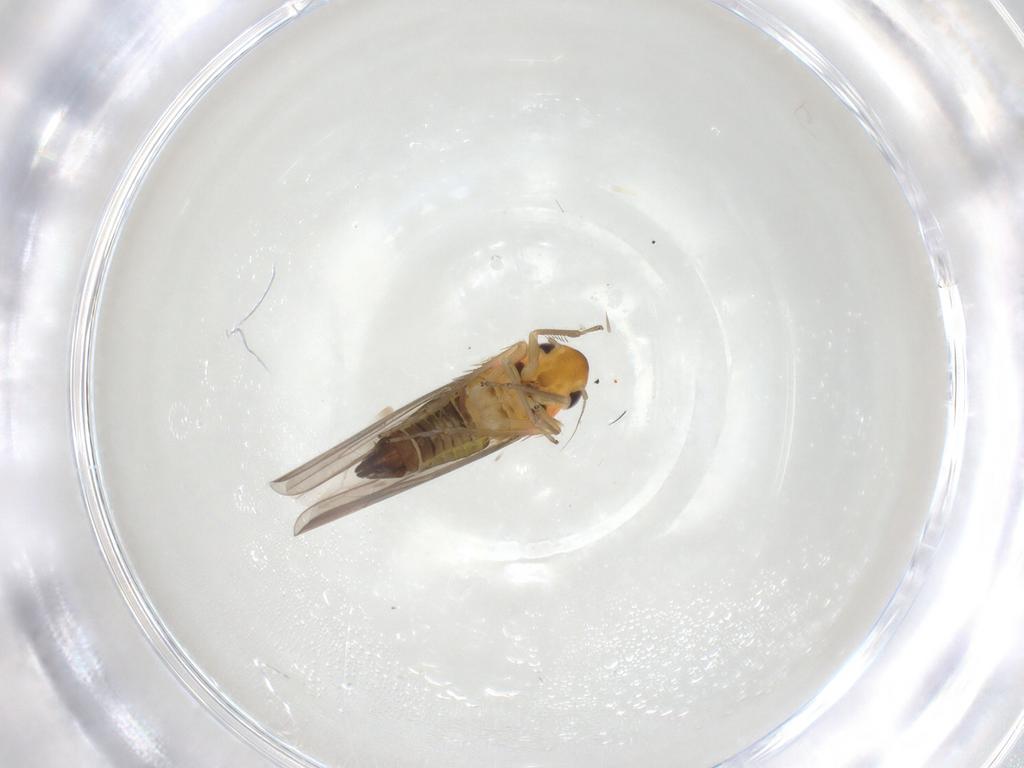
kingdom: Animalia
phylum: Arthropoda
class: Insecta
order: Hemiptera
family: Cicadellidae
